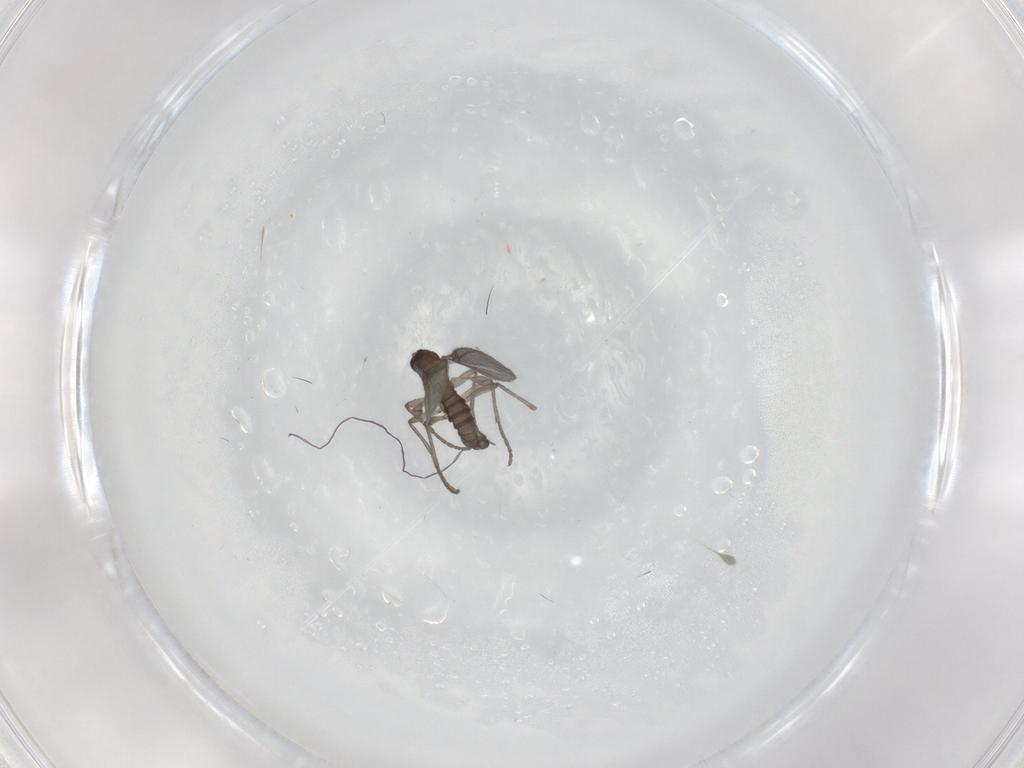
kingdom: Animalia
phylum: Arthropoda
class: Insecta
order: Diptera
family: Sciaridae
